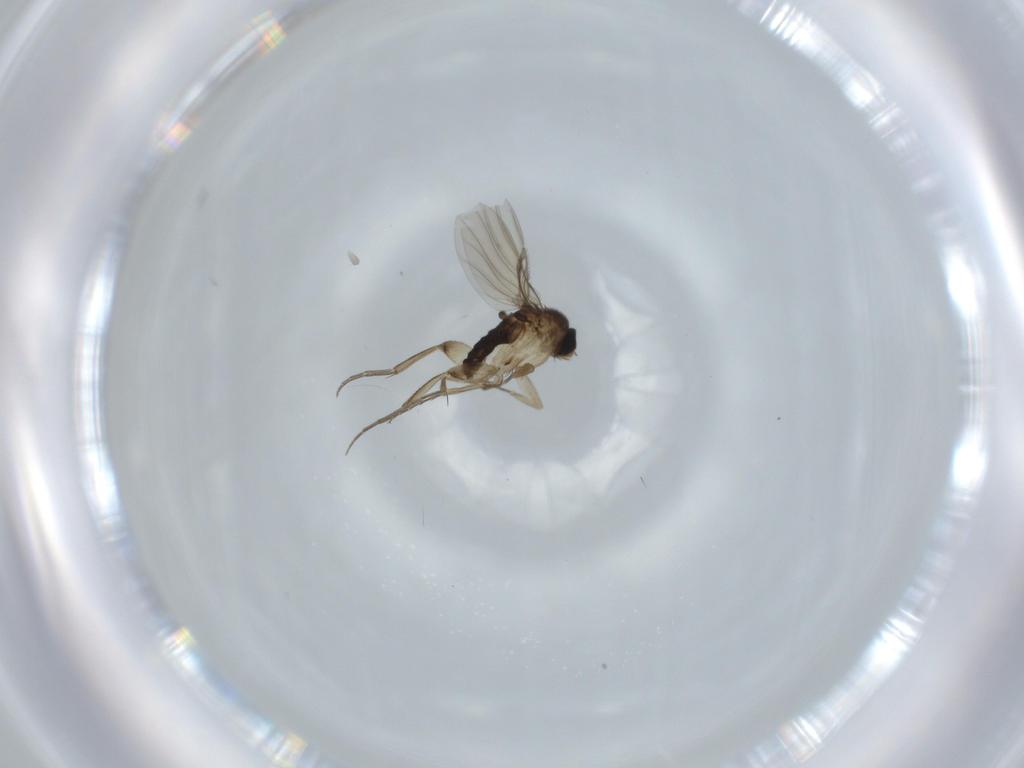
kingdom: Animalia
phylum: Arthropoda
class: Insecta
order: Diptera
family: Phoridae
